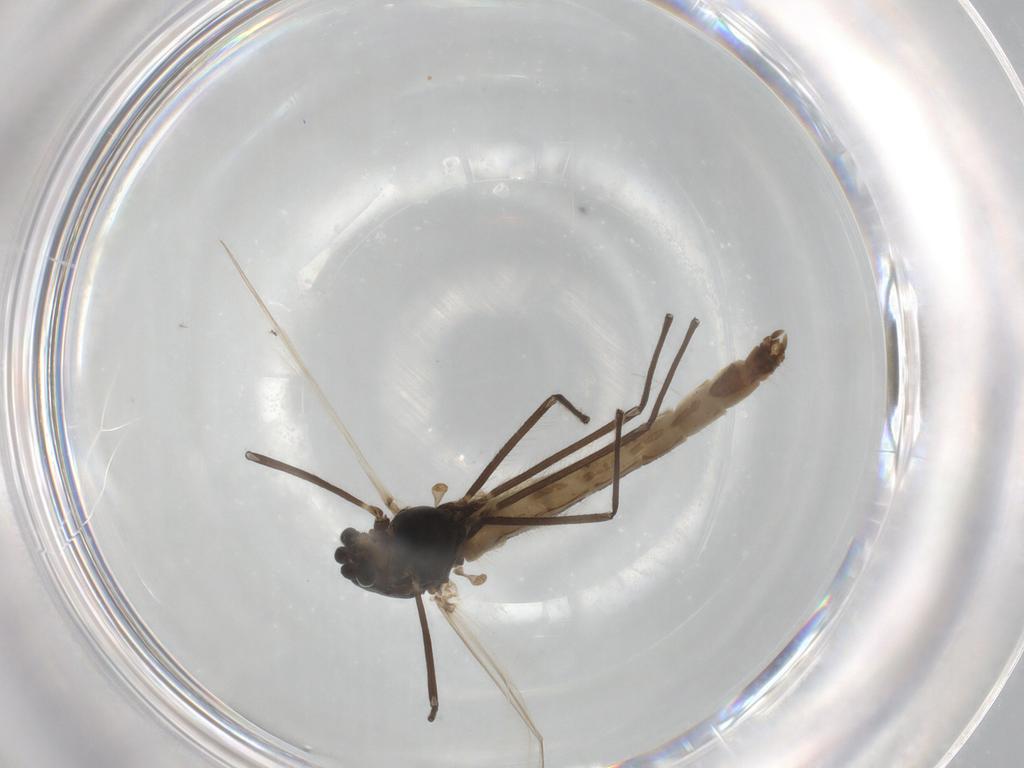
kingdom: Animalia
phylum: Arthropoda
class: Insecta
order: Diptera
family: Chironomidae
